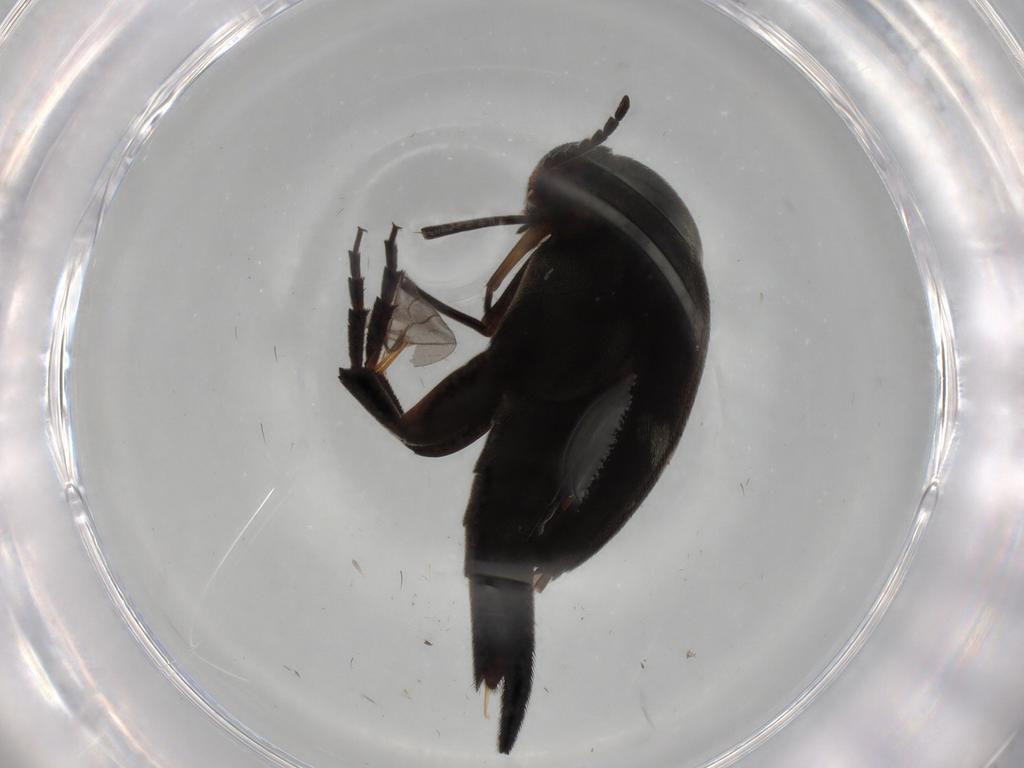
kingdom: Animalia
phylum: Arthropoda
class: Insecta
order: Coleoptera
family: Mordellidae
